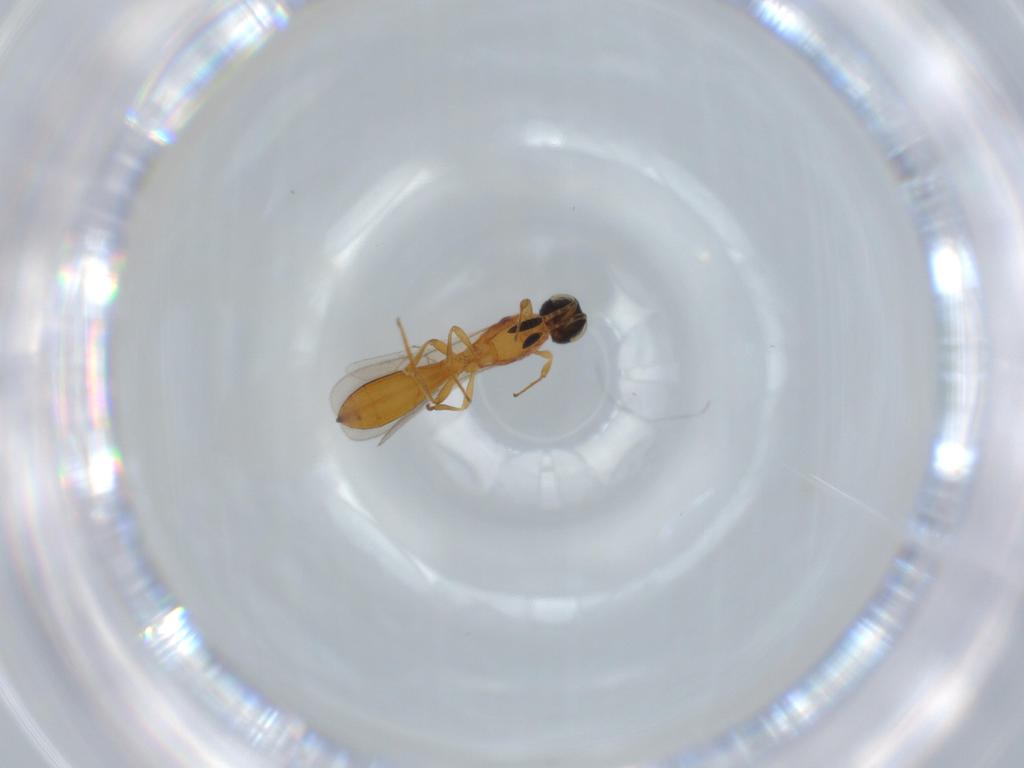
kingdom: Animalia
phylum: Arthropoda
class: Insecta
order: Hymenoptera
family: Scelionidae
